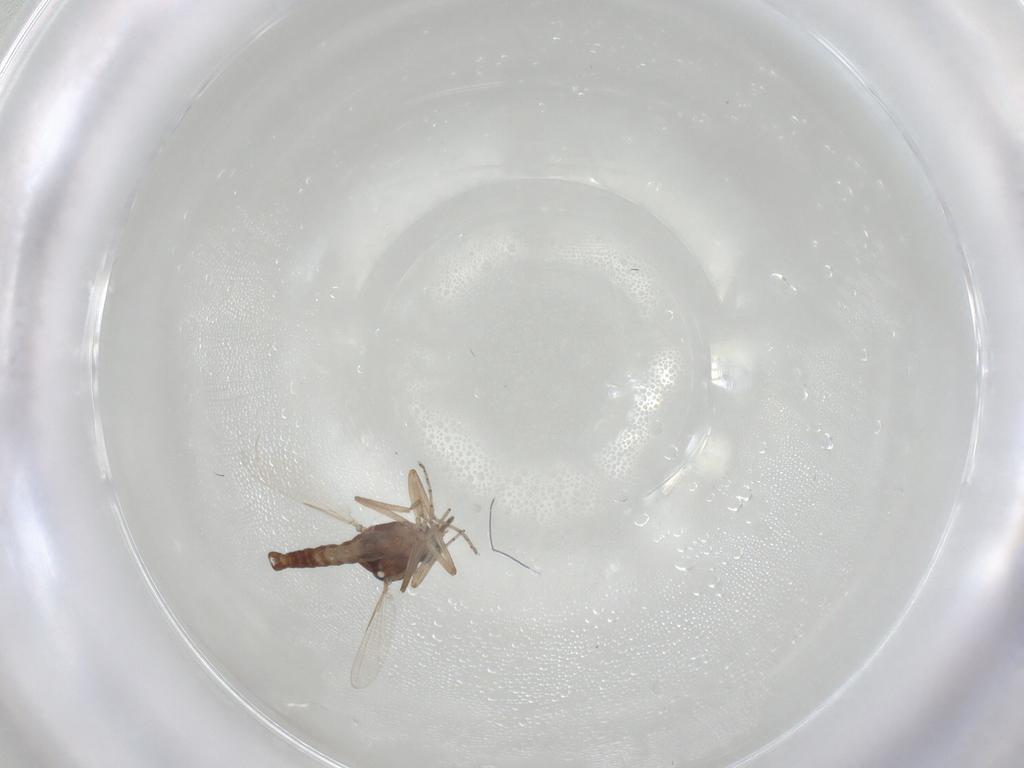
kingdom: Animalia
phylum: Arthropoda
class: Insecta
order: Diptera
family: Ceratopogonidae
